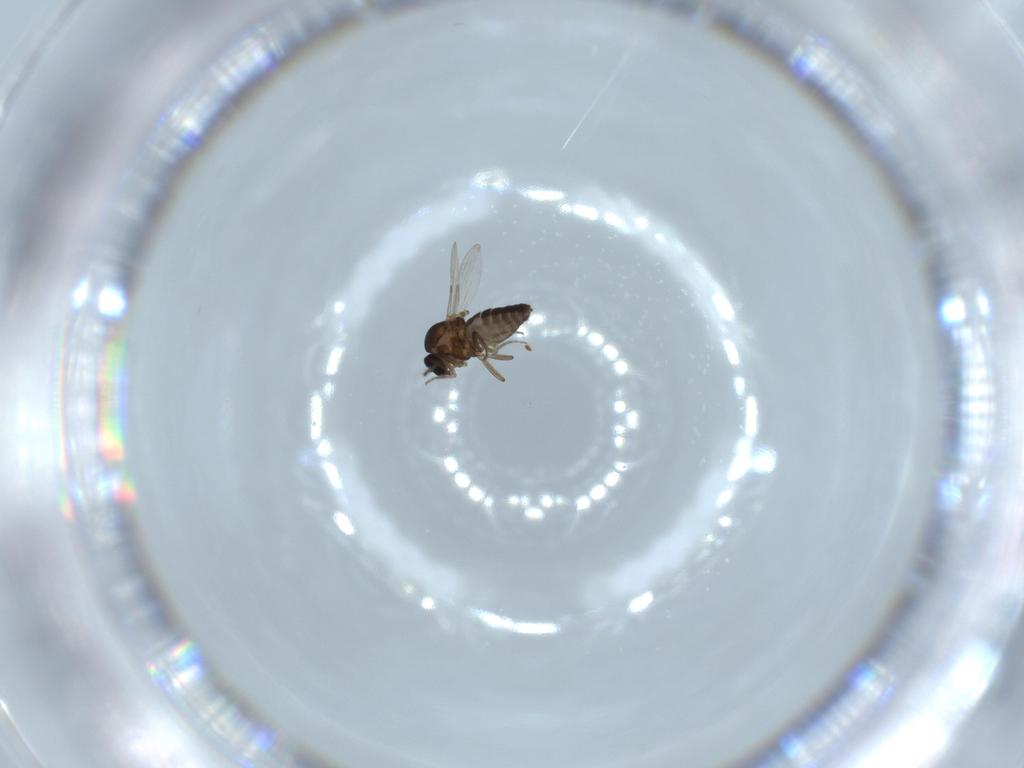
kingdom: Animalia
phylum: Arthropoda
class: Insecta
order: Diptera
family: Ceratopogonidae
